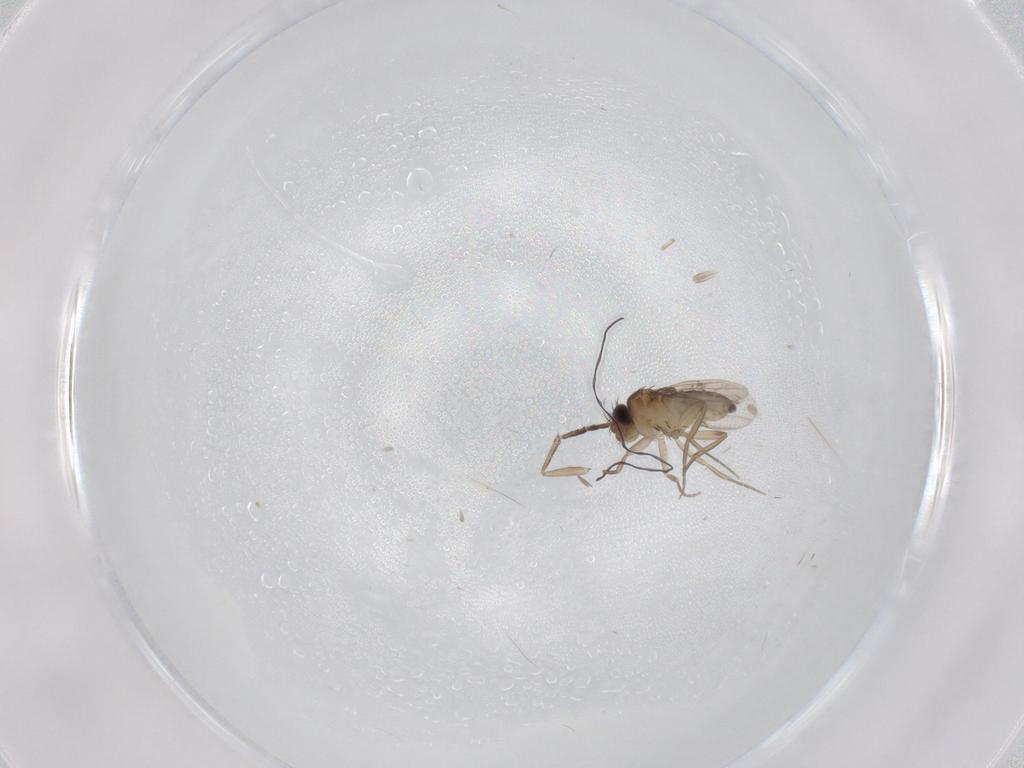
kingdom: Animalia
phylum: Arthropoda
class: Insecta
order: Diptera
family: Phoridae
